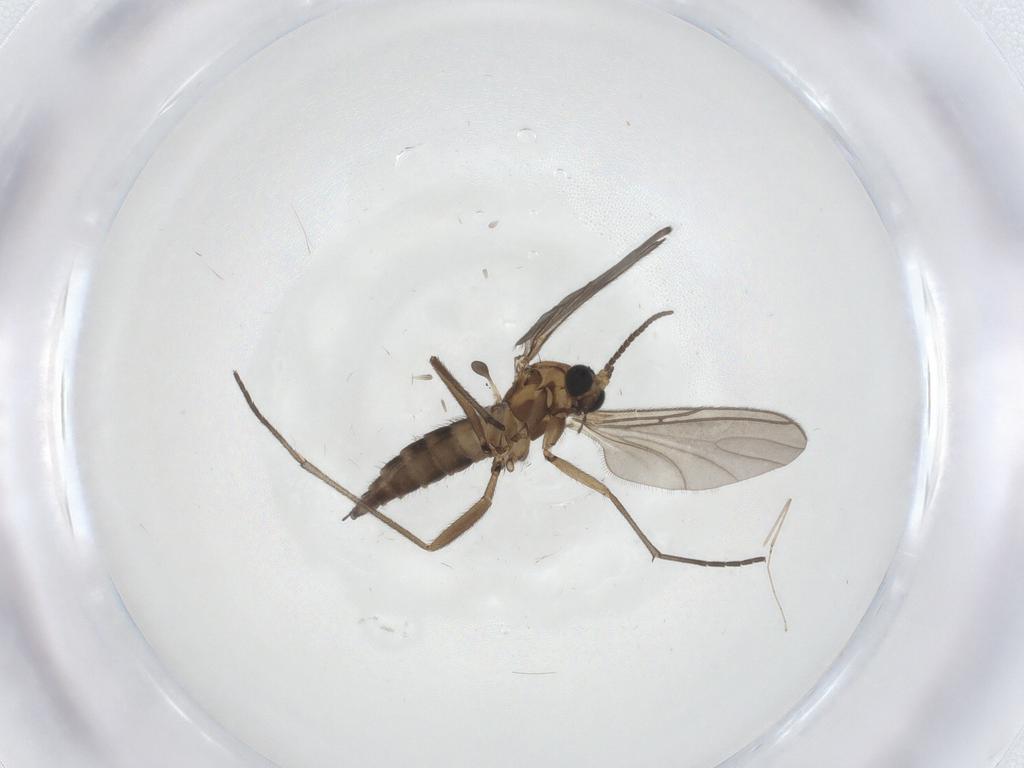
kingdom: Animalia
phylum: Arthropoda
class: Insecta
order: Diptera
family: Sciaridae
